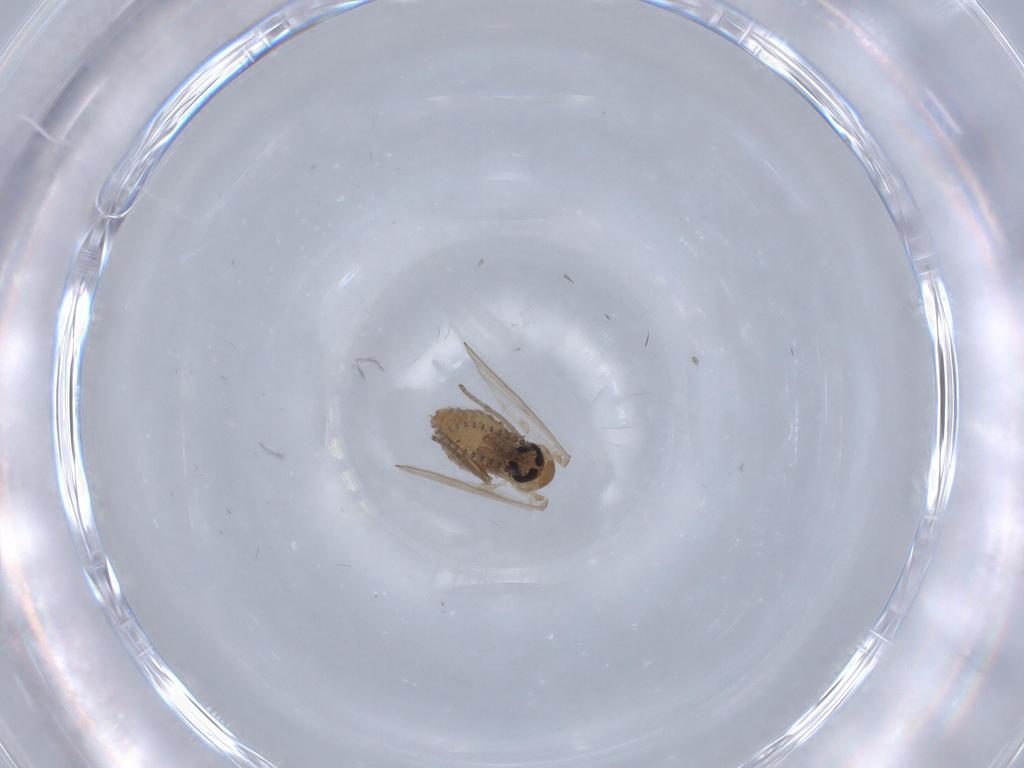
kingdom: Animalia
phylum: Arthropoda
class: Insecta
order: Diptera
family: Psychodidae
